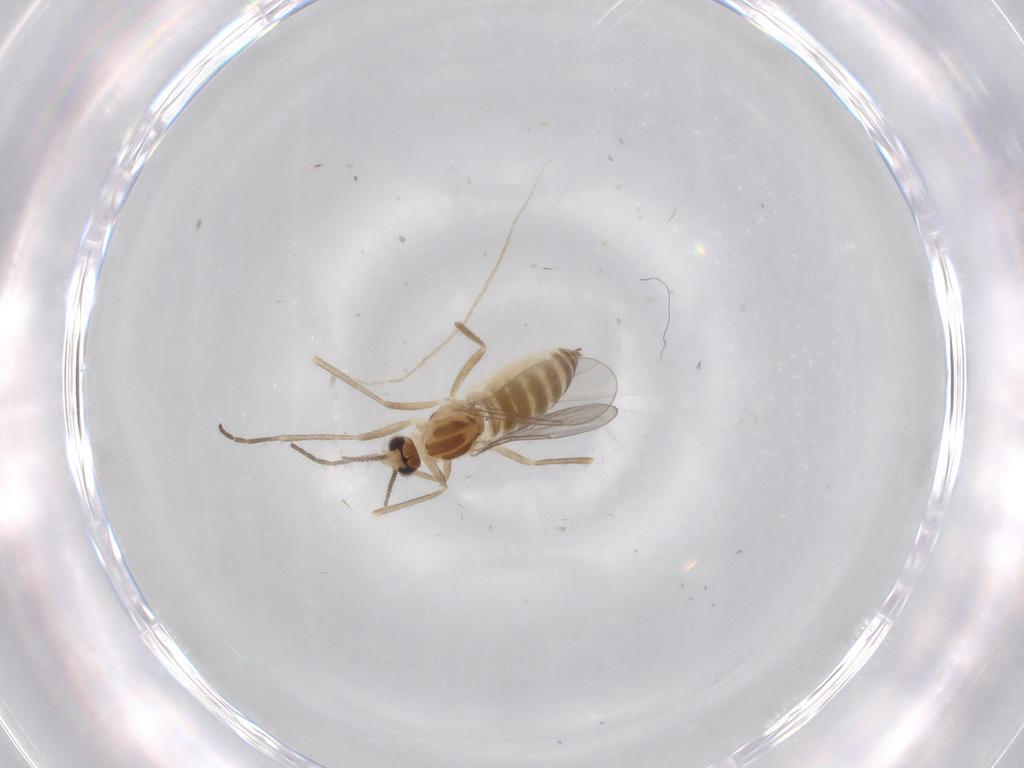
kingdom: Animalia
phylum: Arthropoda
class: Insecta
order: Diptera
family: Cecidomyiidae
